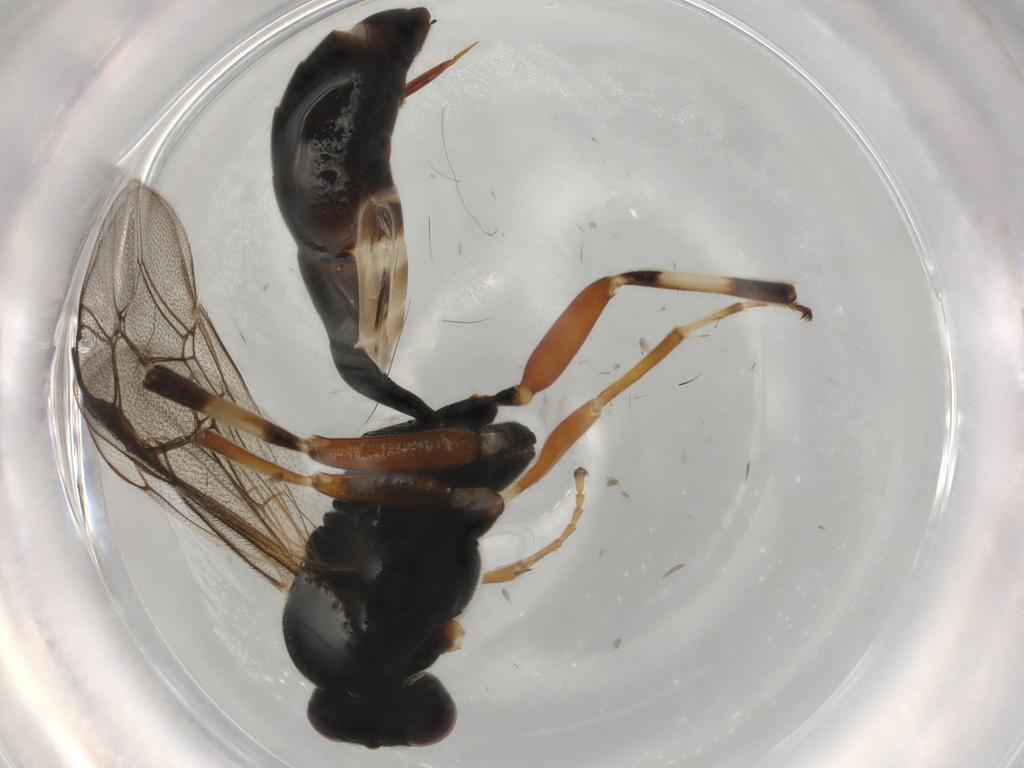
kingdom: Animalia
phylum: Arthropoda
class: Insecta
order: Hymenoptera
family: Ichneumonidae
